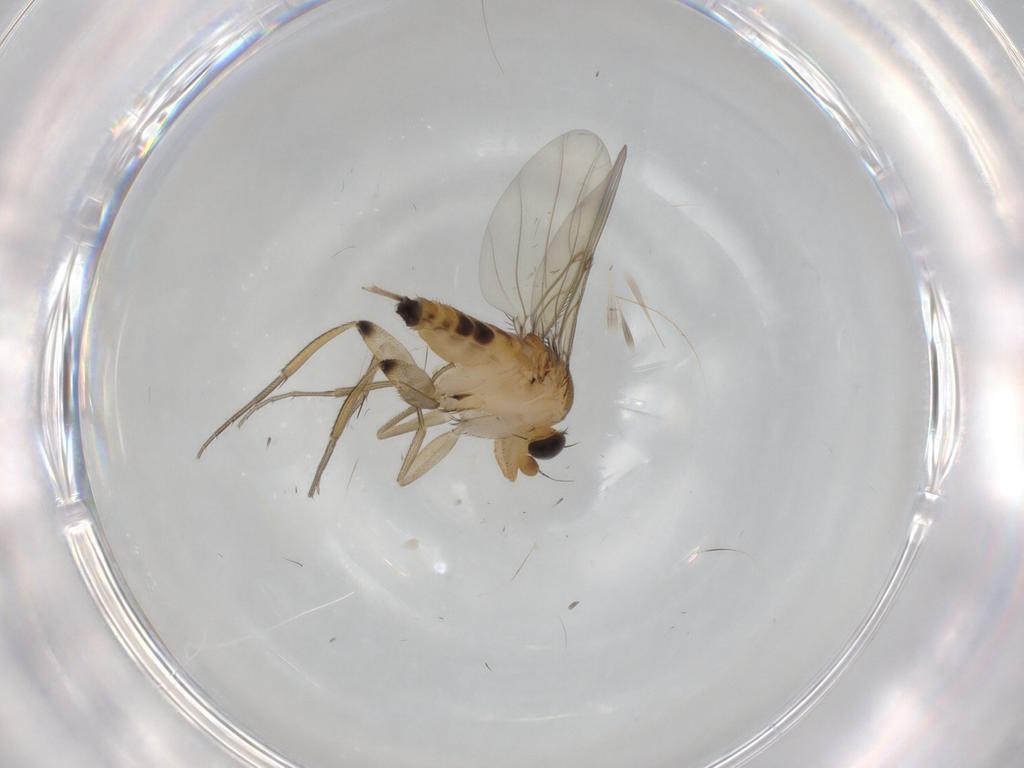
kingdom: Animalia
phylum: Arthropoda
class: Insecta
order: Diptera
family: Phoridae
